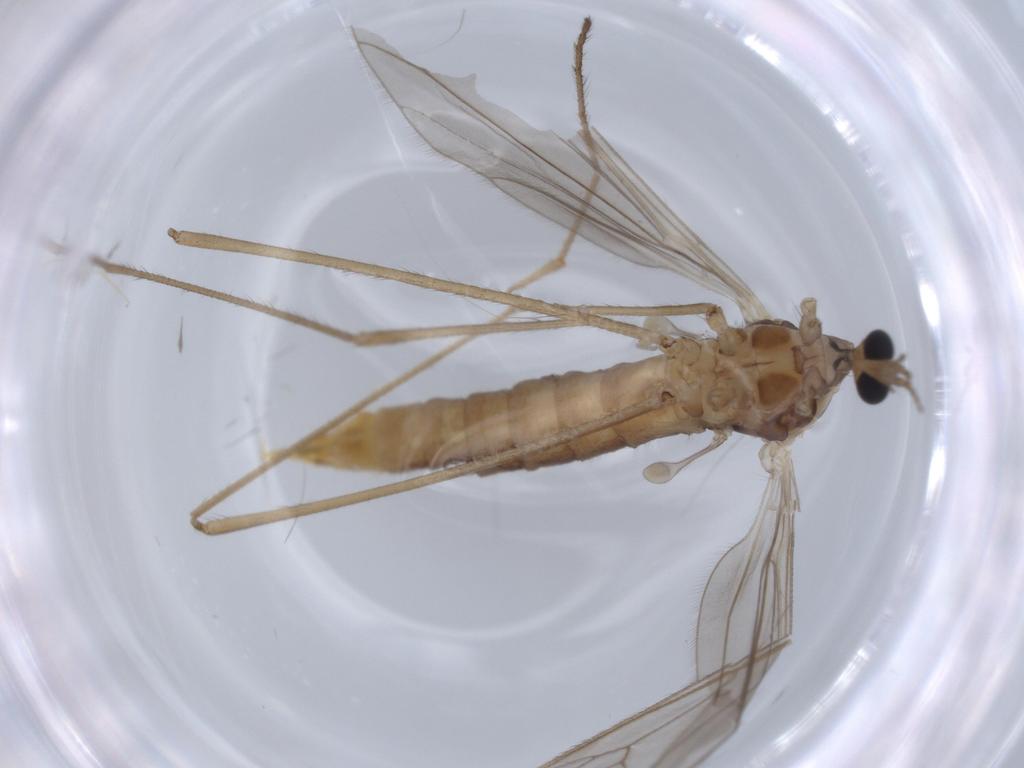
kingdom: Animalia
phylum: Arthropoda
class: Insecta
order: Diptera
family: Limoniidae
